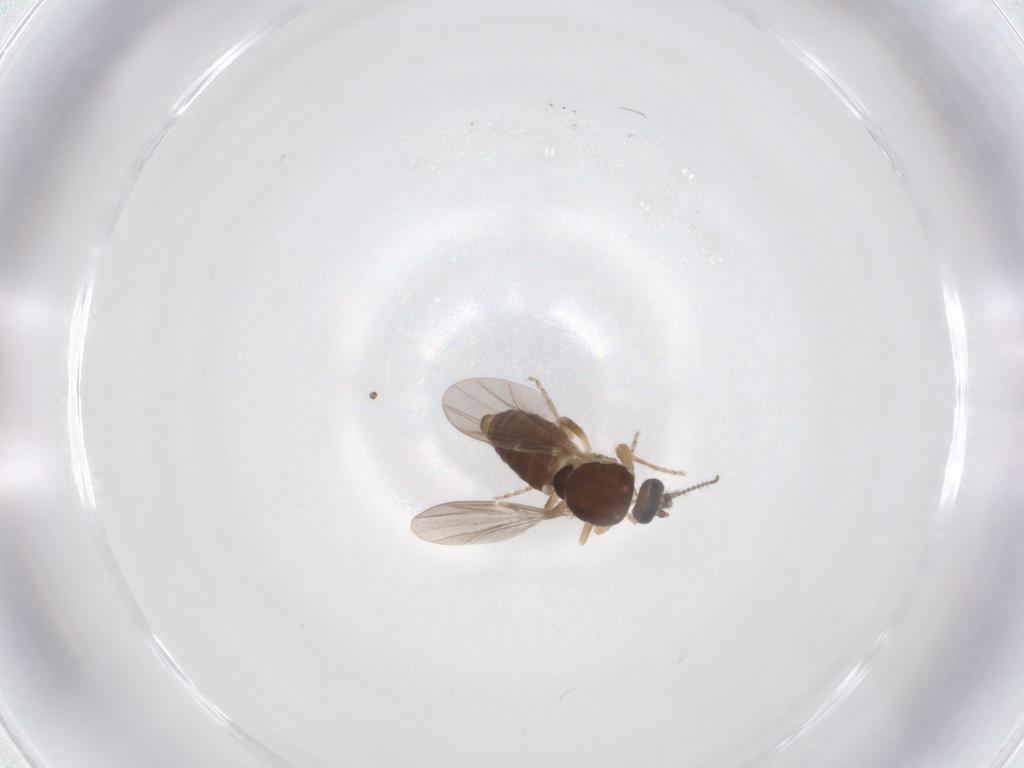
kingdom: Animalia
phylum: Arthropoda
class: Insecta
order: Diptera
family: Ceratopogonidae
